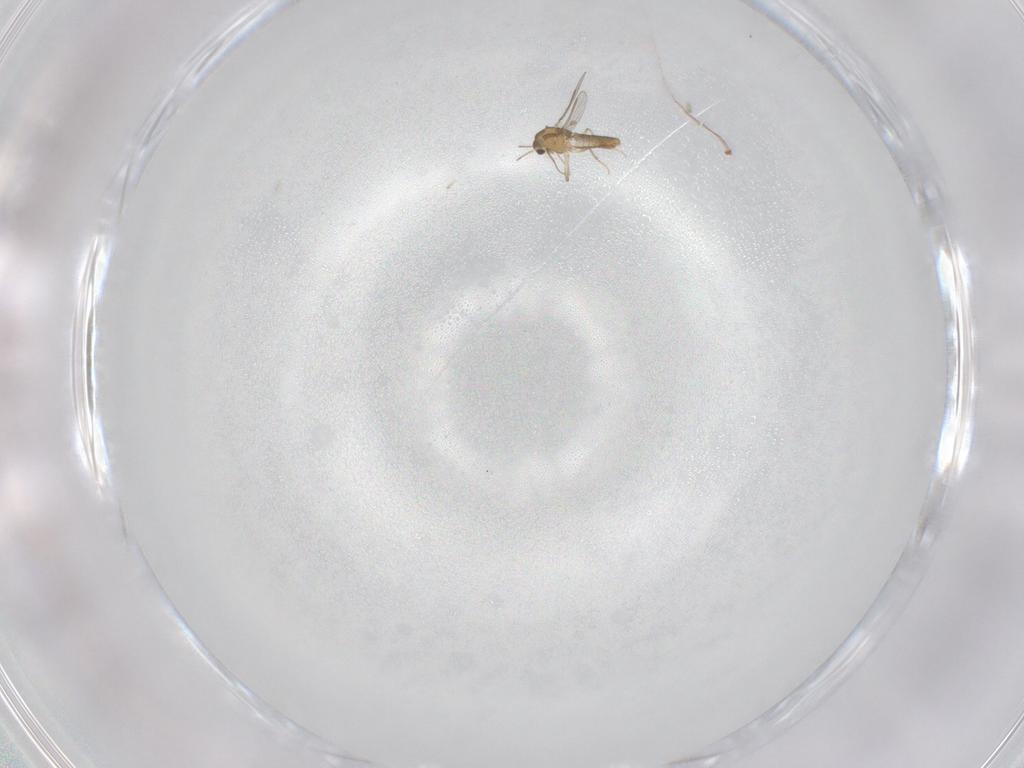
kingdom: Animalia
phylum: Arthropoda
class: Insecta
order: Diptera
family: Chironomidae
